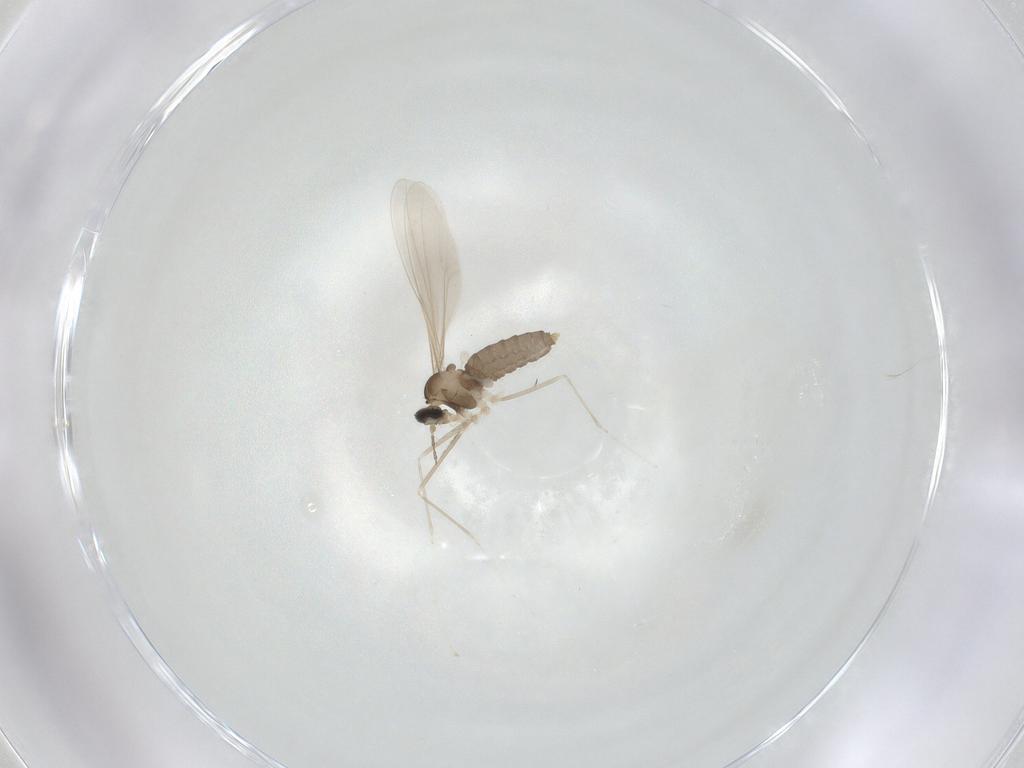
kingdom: Animalia
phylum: Arthropoda
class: Insecta
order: Diptera
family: Cecidomyiidae
